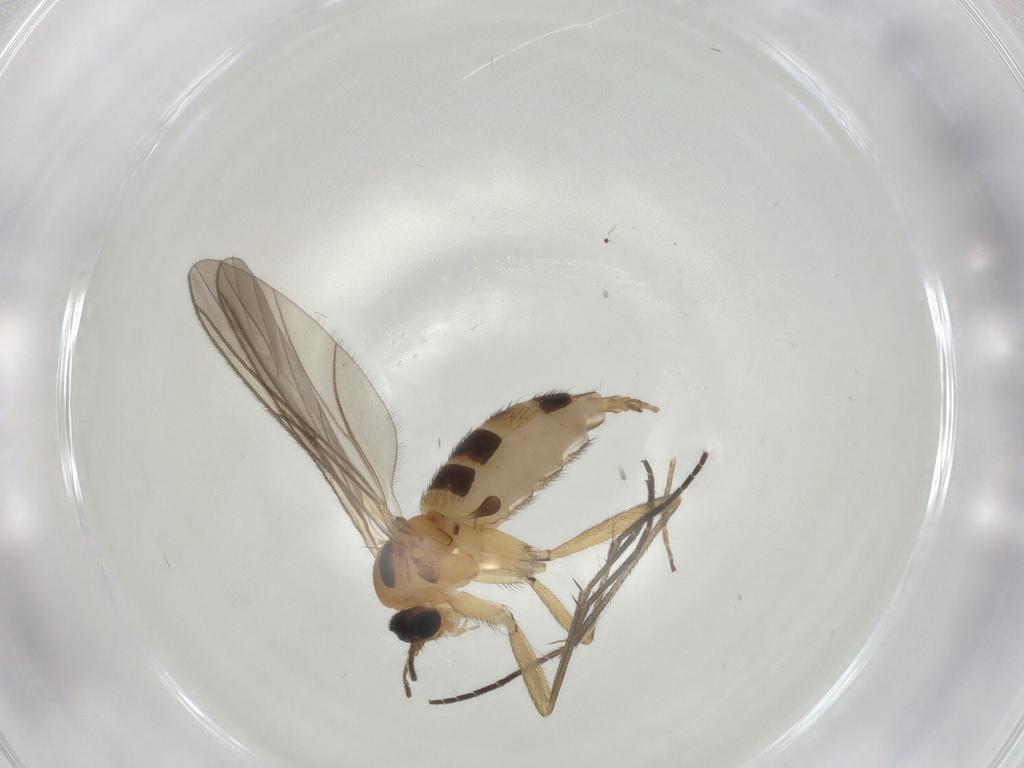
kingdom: Animalia
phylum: Arthropoda
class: Insecta
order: Diptera
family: Sciaridae
